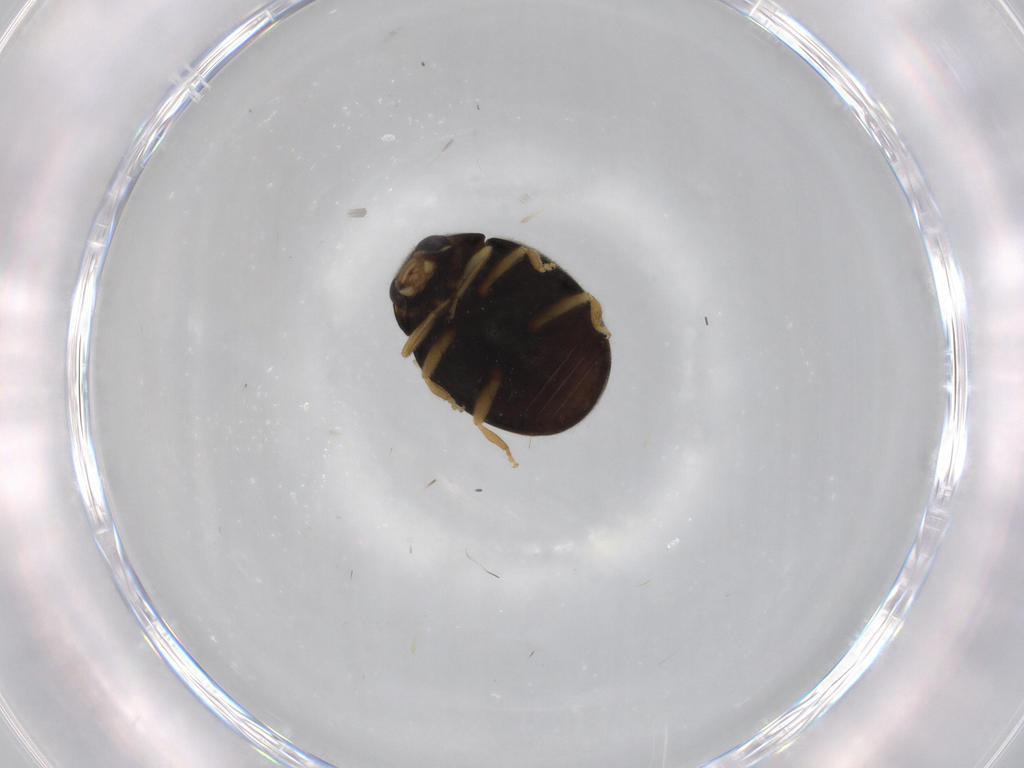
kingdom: Animalia
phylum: Arthropoda
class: Insecta
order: Coleoptera
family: Coccinellidae
